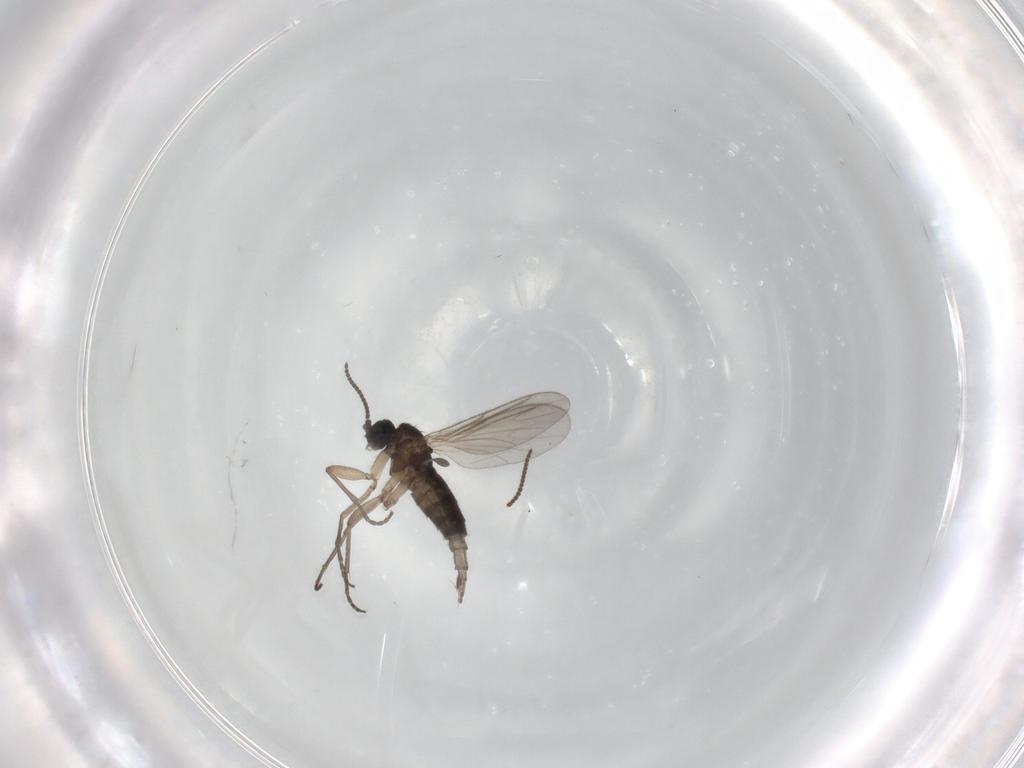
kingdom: Animalia
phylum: Arthropoda
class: Insecta
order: Diptera
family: Sciaridae
